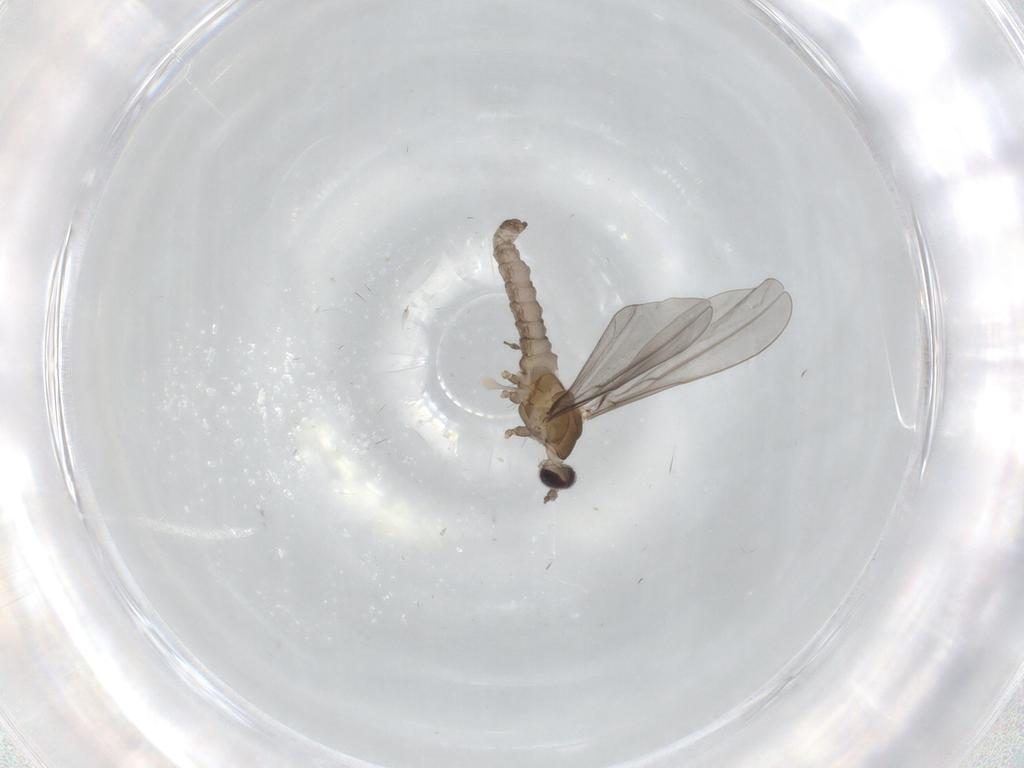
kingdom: Animalia
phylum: Arthropoda
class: Insecta
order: Diptera
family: Cecidomyiidae
